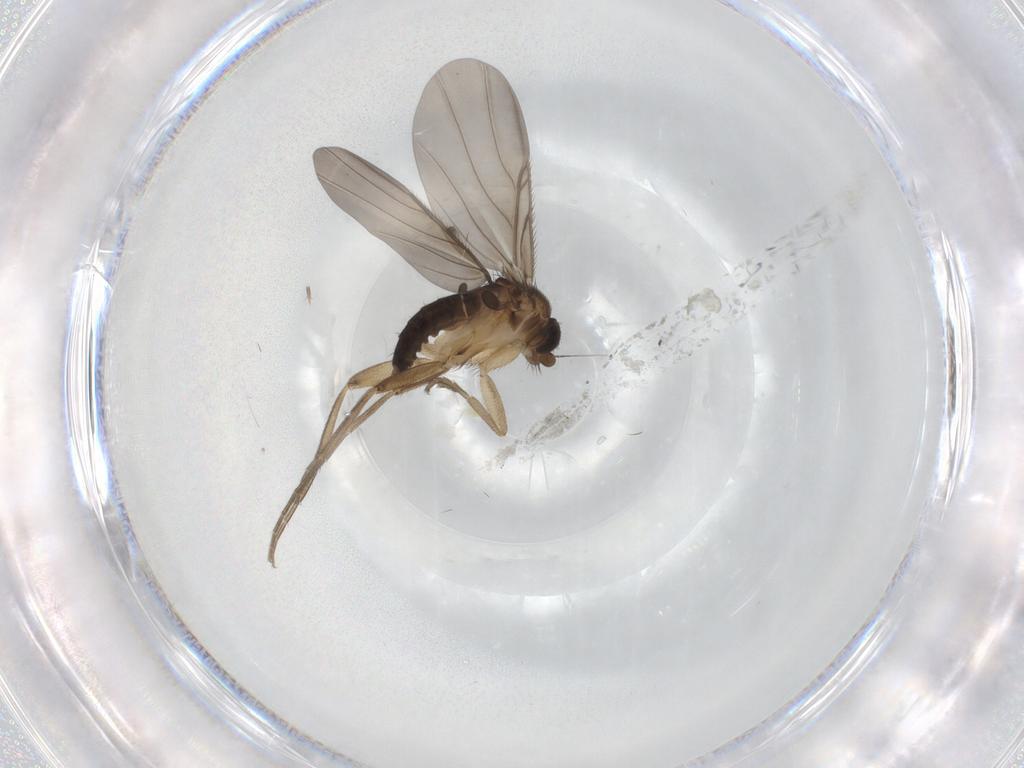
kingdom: Animalia
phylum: Arthropoda
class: Insecta
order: Diptera
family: Phoridae
